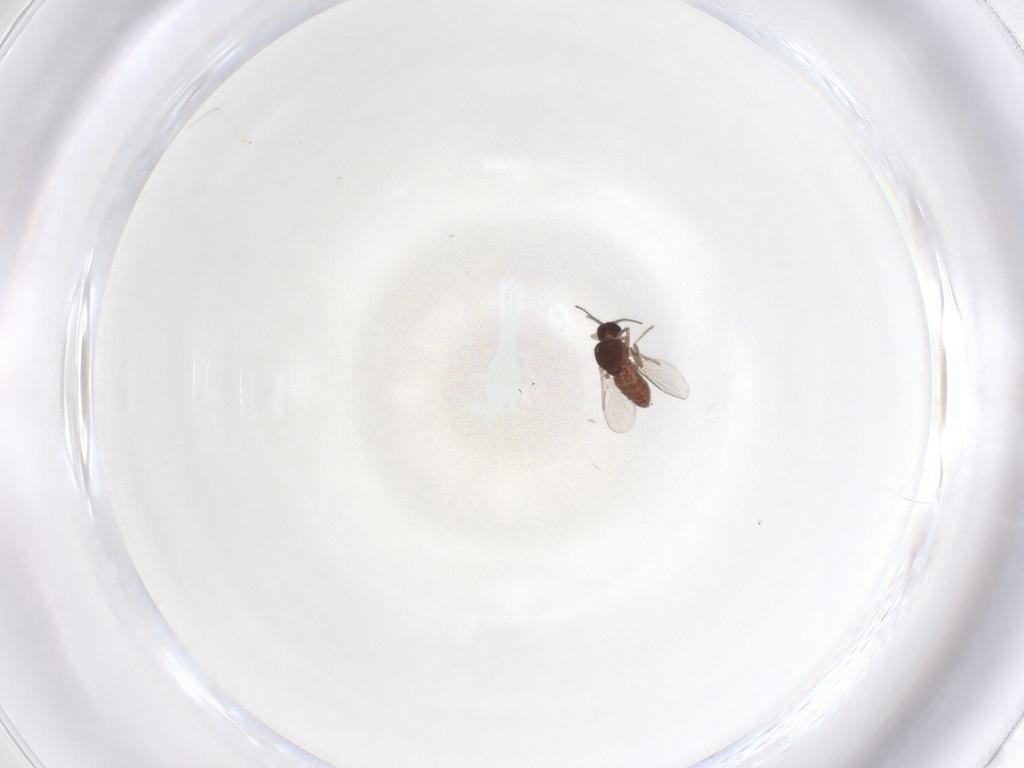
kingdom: Animalia
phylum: Arthropoda
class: Insecta
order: Diptera
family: Ceratopogonidae
